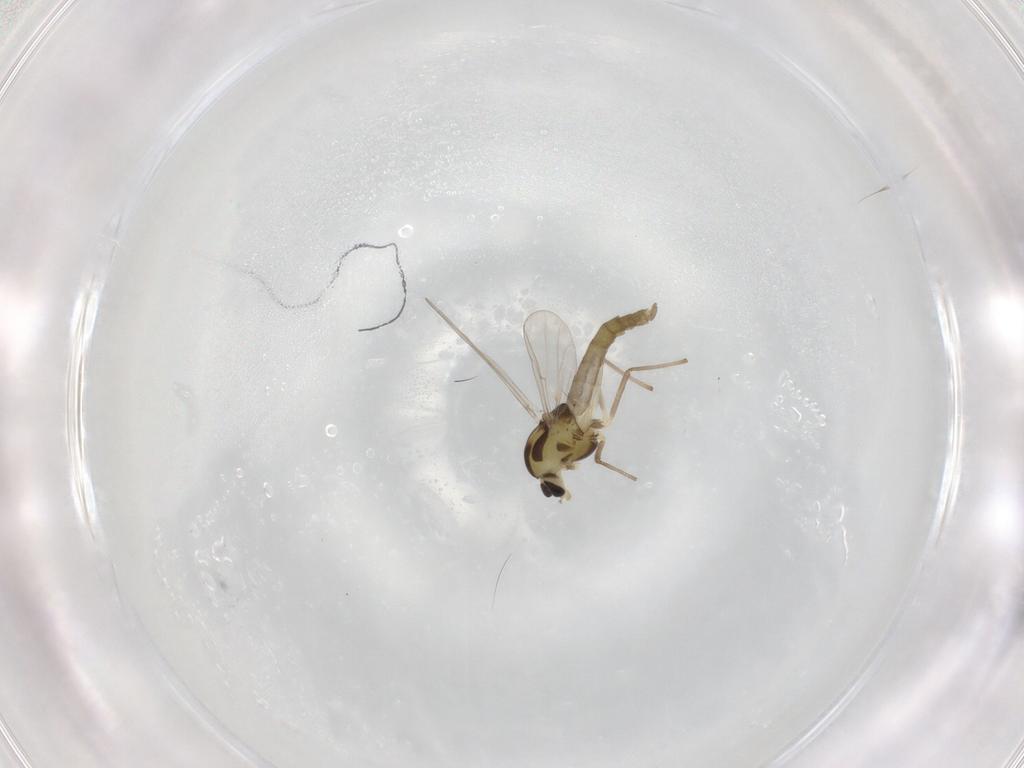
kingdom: Animalia
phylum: Arthropoda
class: Insecta
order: Diptera
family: Chironomidae
